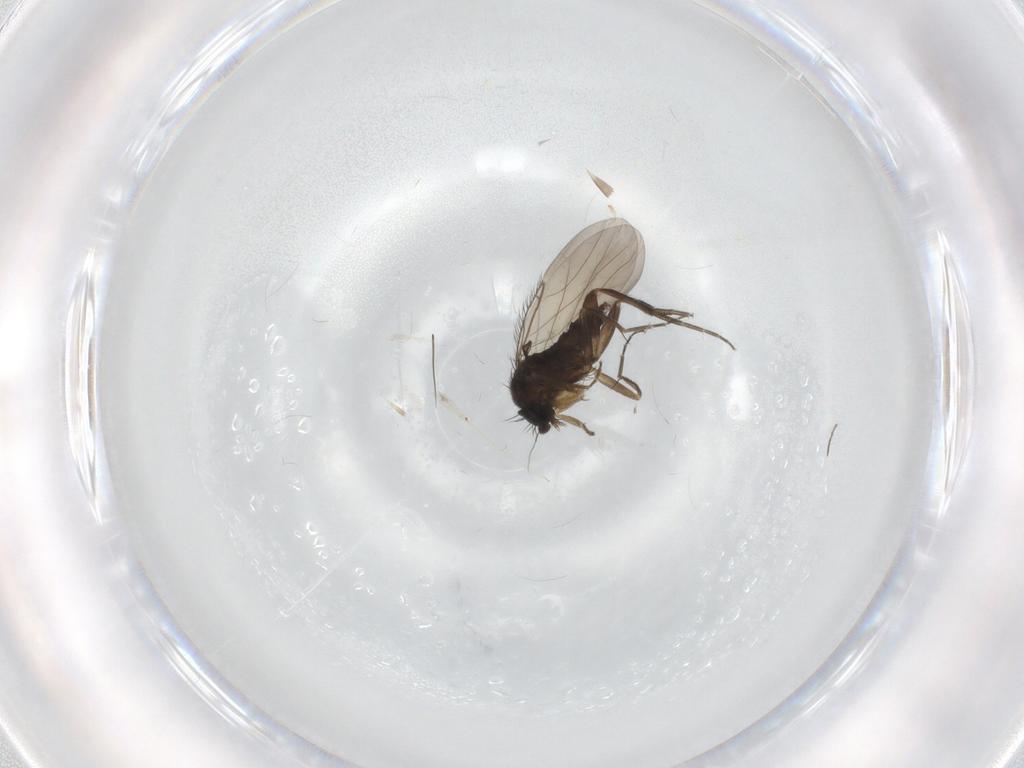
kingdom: Animalia
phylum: Arthropoda
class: Insecta
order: Diptera
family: Phoridae
